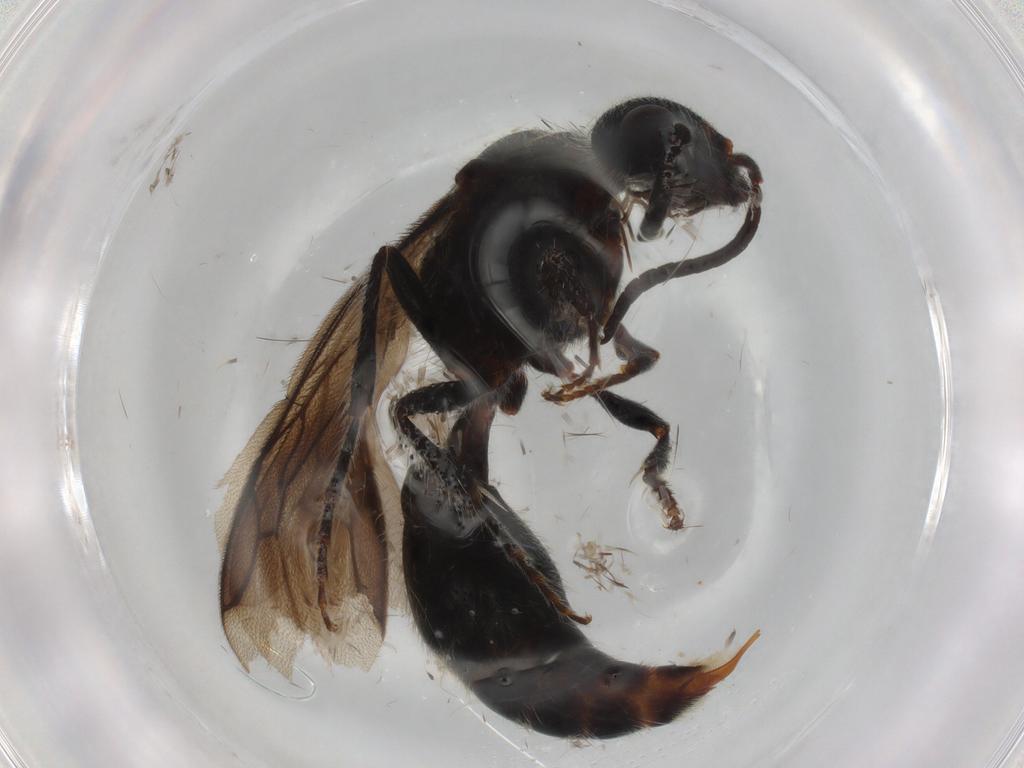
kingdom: Animalia
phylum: Arthropoda
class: Insecta
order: Hymenoptera
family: Mutillidae
